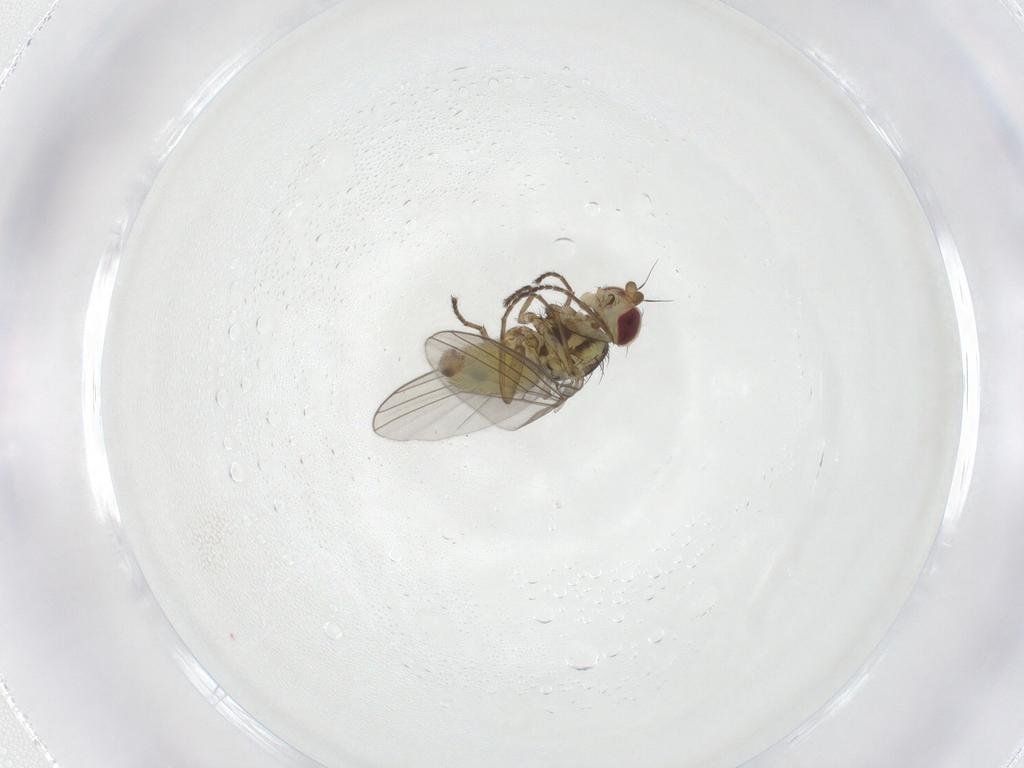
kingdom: Animalia
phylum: Arthropoda
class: Insecta
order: Diptera
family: Agromyzidae
